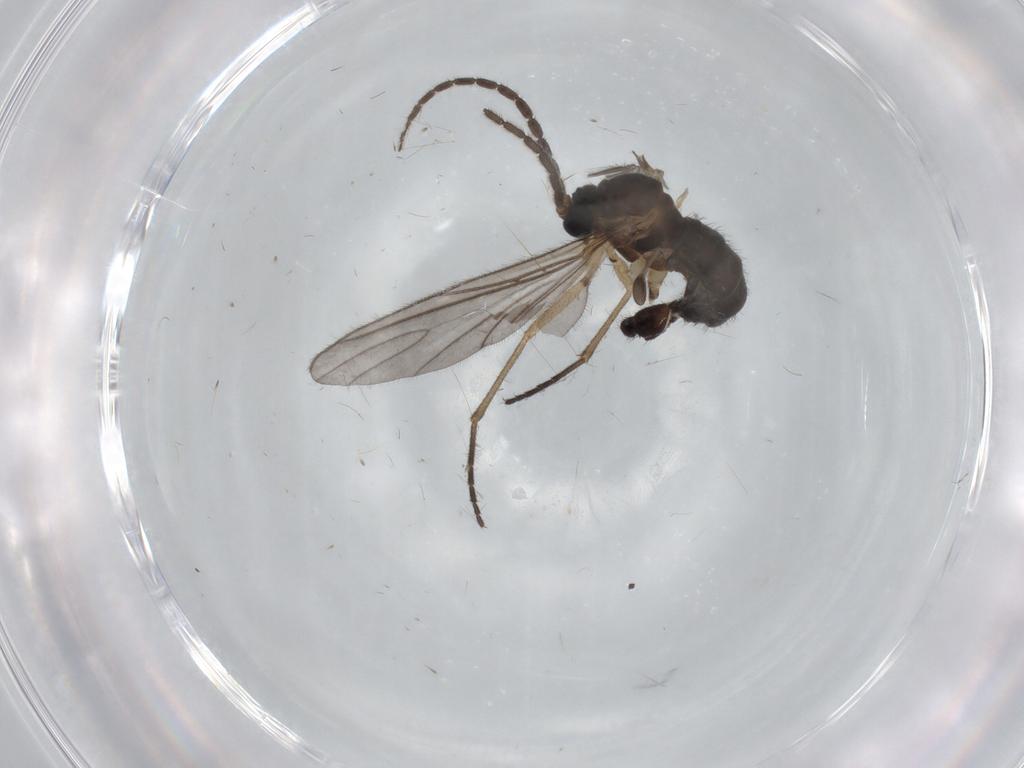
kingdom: Animalia
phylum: Arthropoda
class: Insecta
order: Diptera
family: Sciaridae
